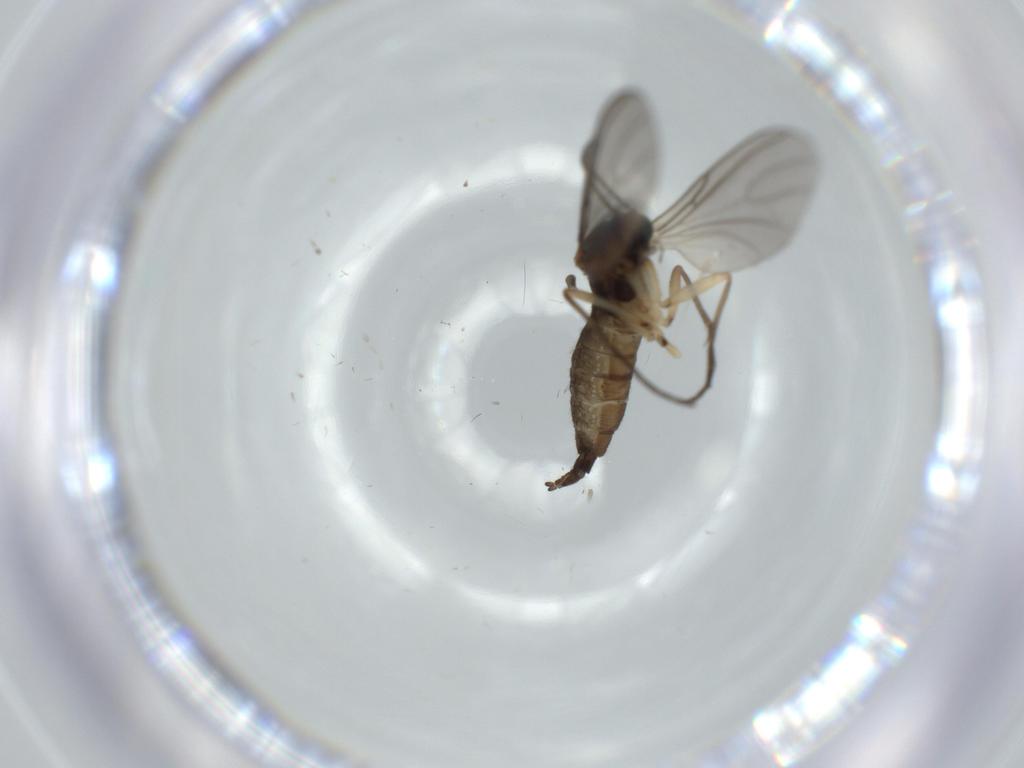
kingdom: Animalia
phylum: Arthropoda
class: Insecta
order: Diptera
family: Sciaridae
